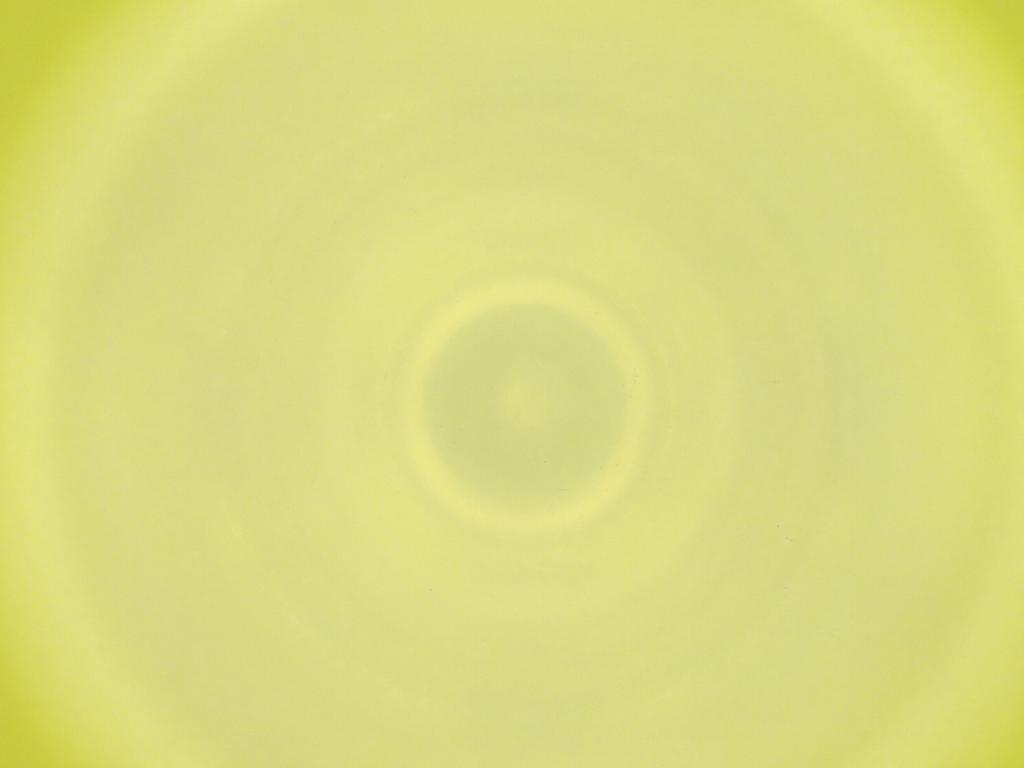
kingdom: Animalia
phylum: Arthropoda
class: Insecta
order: Diptera
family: Cecidomyiidae
